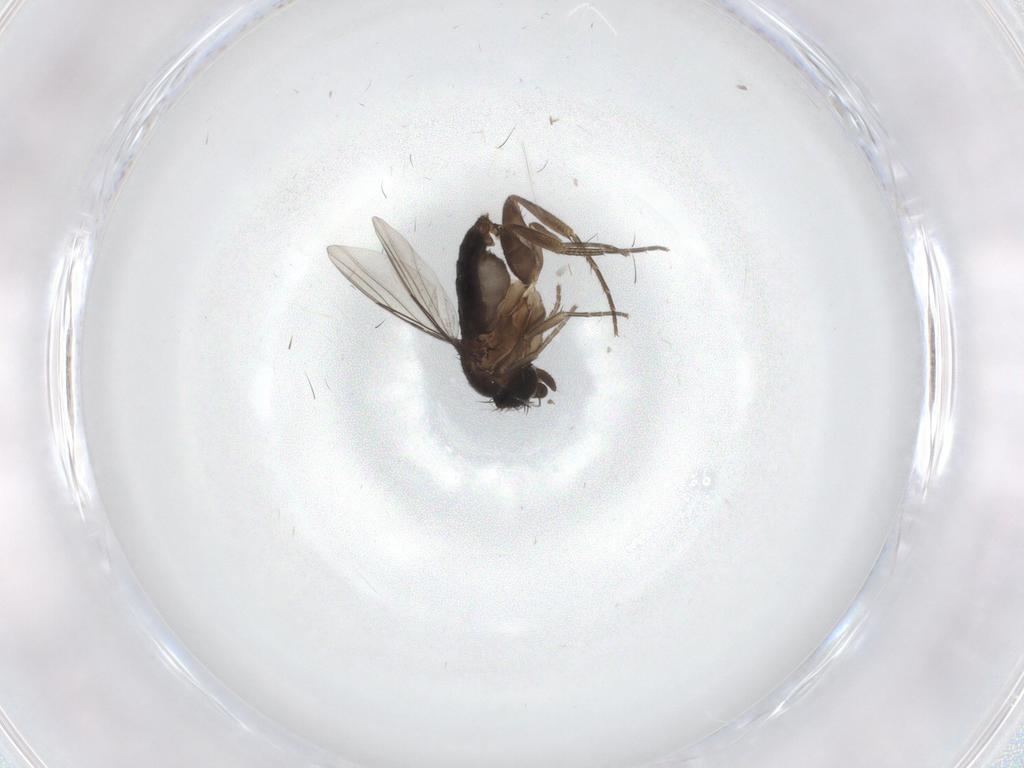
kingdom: Animalia
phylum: Arthropoda
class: Insecta
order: Diptera
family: Phoridae
